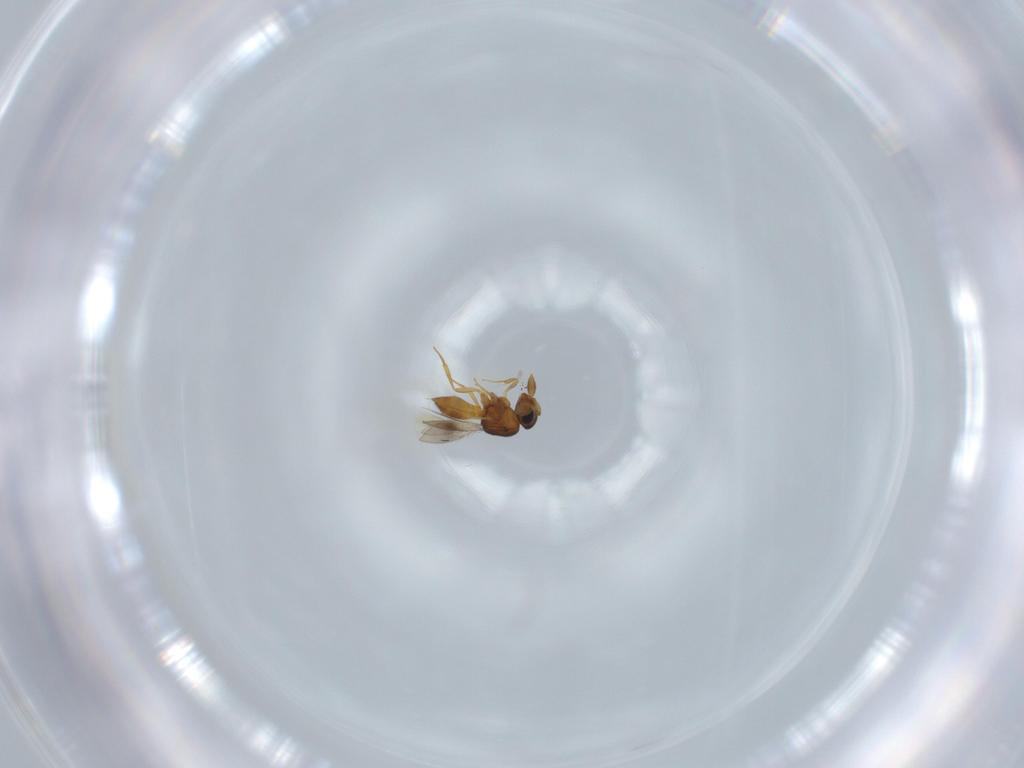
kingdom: Animalia
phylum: Arthropoda
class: Insecta
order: Hymenoptera
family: Scelionidae
